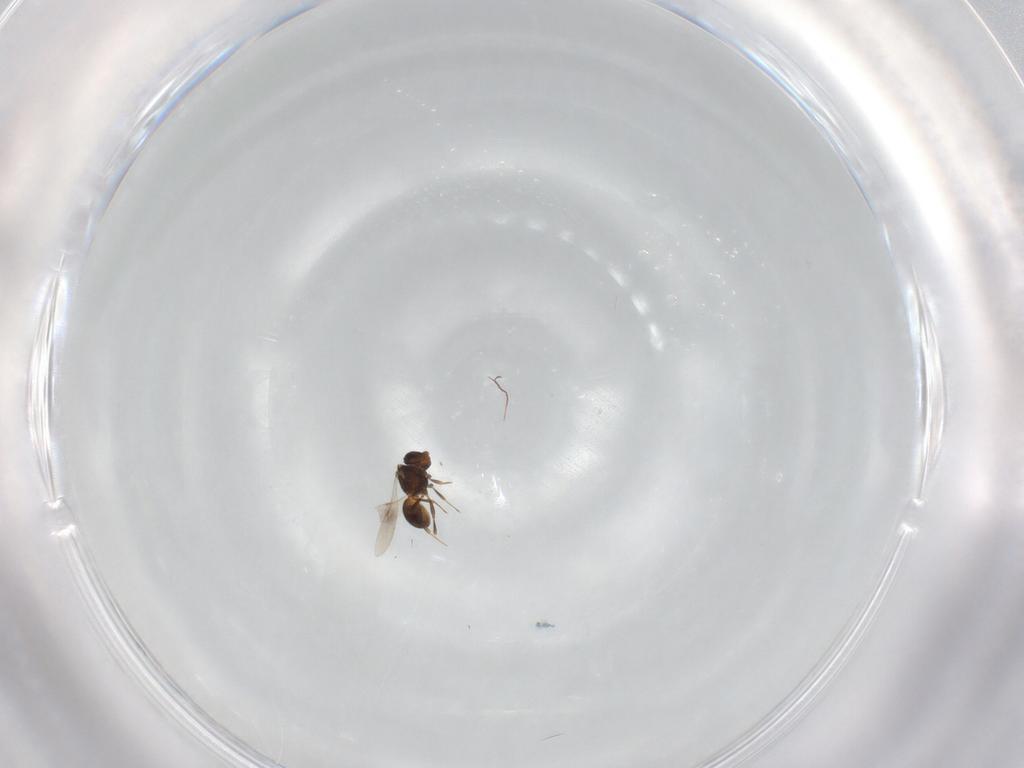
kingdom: Animalia
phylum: Arthropoda
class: Insecta
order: Hymenoptera
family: Scelionidae
